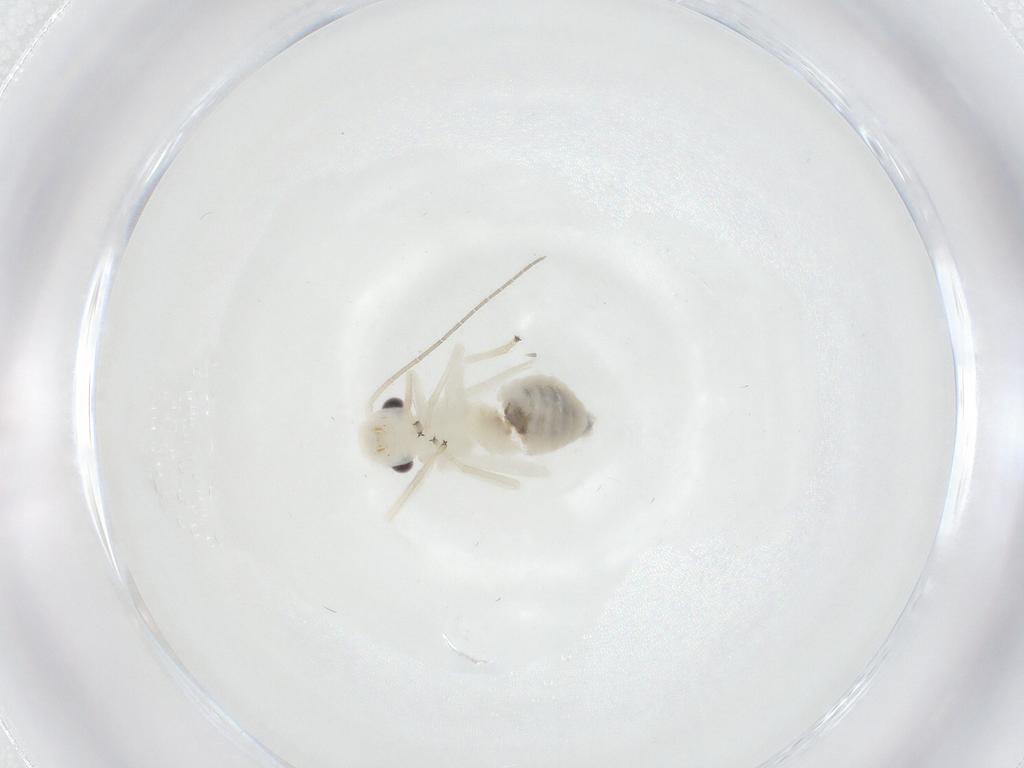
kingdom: Animalia
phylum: Arthropoda
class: Insecta
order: Psocodea
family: Caeciliusidae
